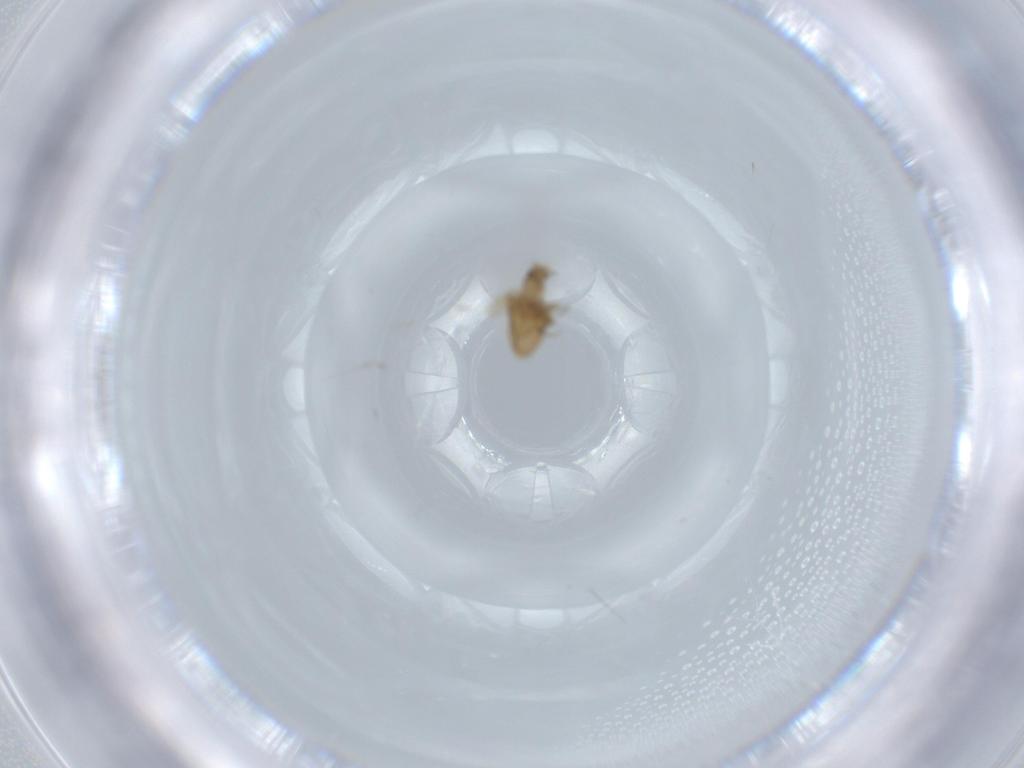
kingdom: Animalia
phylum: Arthropoda
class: Insecta
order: Diptera
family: Phoridae
